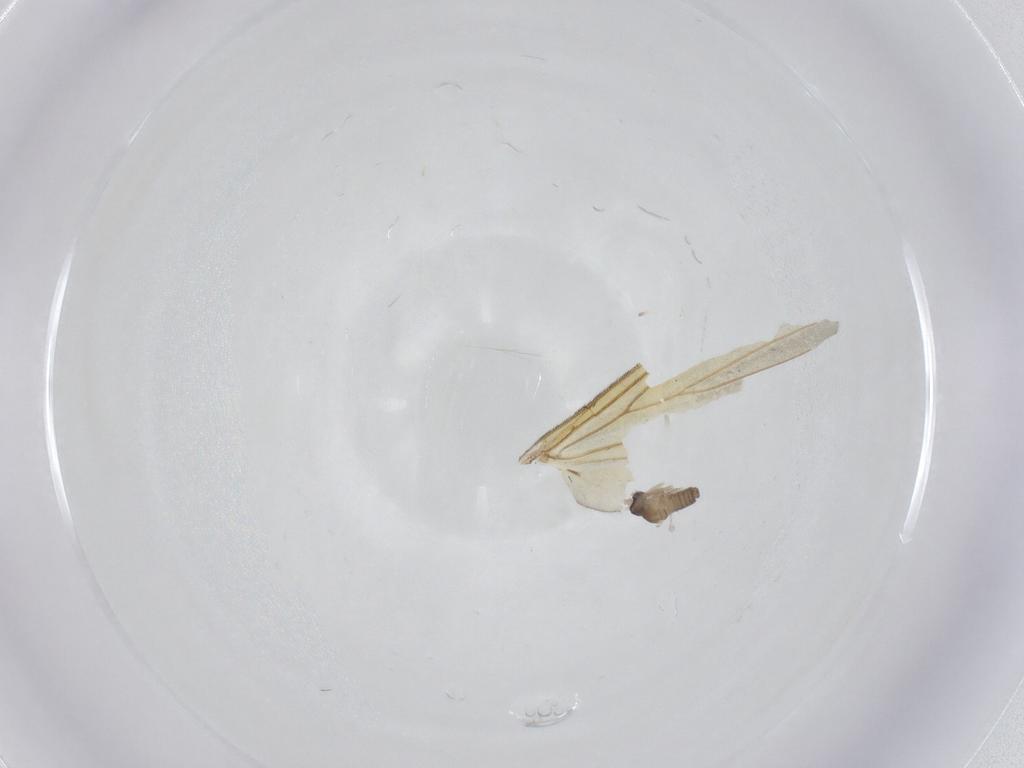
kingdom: Animalia
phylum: Arthropoda
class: Insecta
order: Diptera
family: Cecidomyiidae
